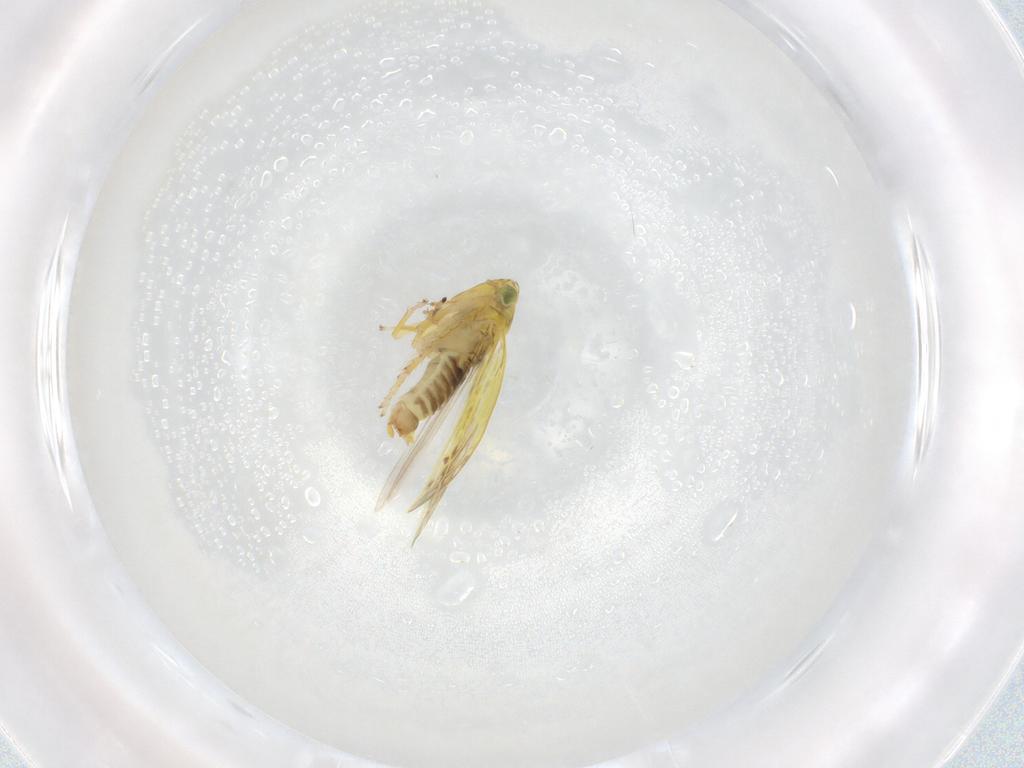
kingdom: Animalia
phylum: Arthropoda
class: Insecta
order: Hemiptera
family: Cicadellidae
